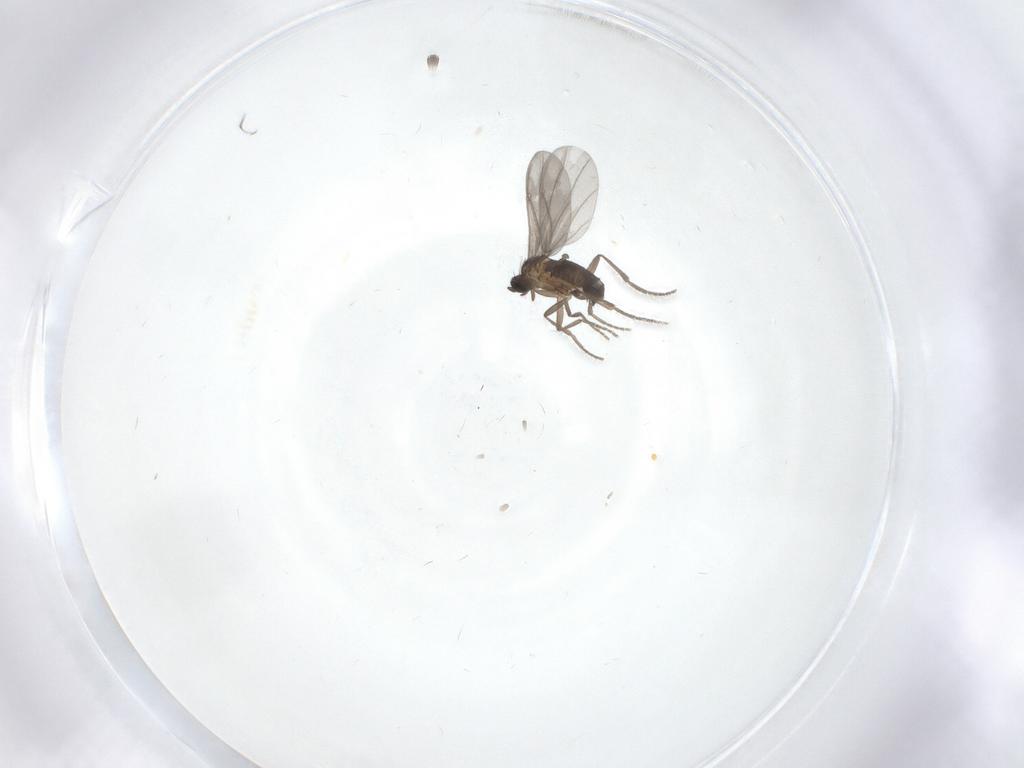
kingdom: Animalia
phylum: Arthropoda
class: Insecta
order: Diptera
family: Phoridae
